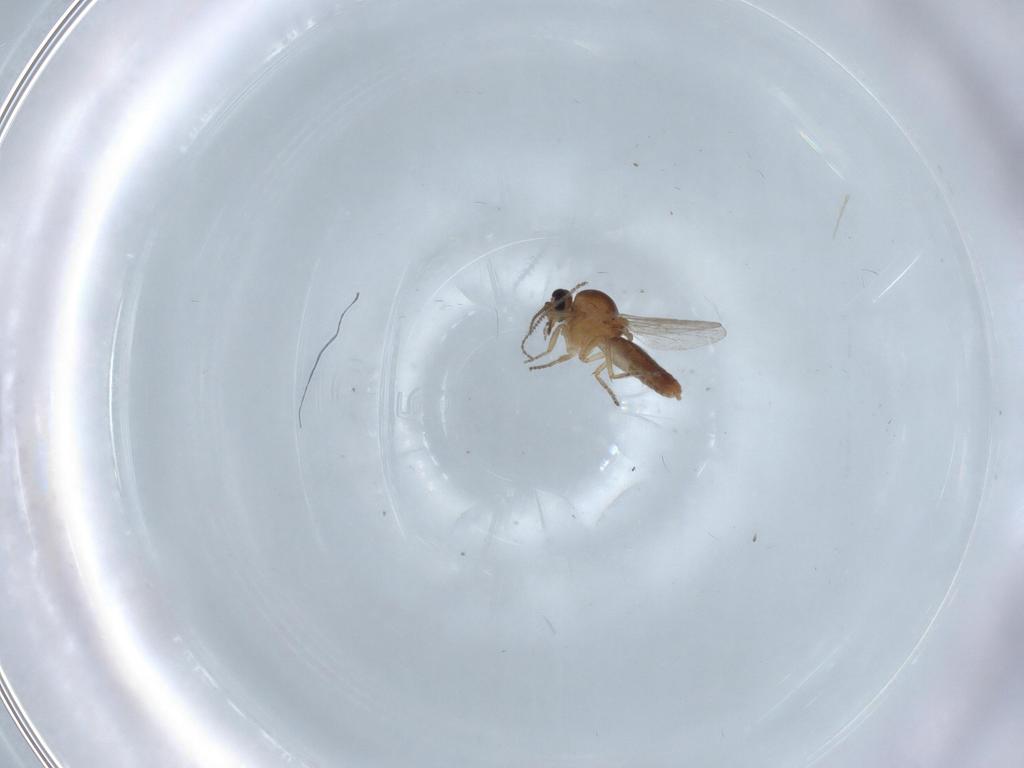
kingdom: Animalia
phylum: Arthropoda
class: Insecta
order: Diptera
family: Ceratopogonidae
